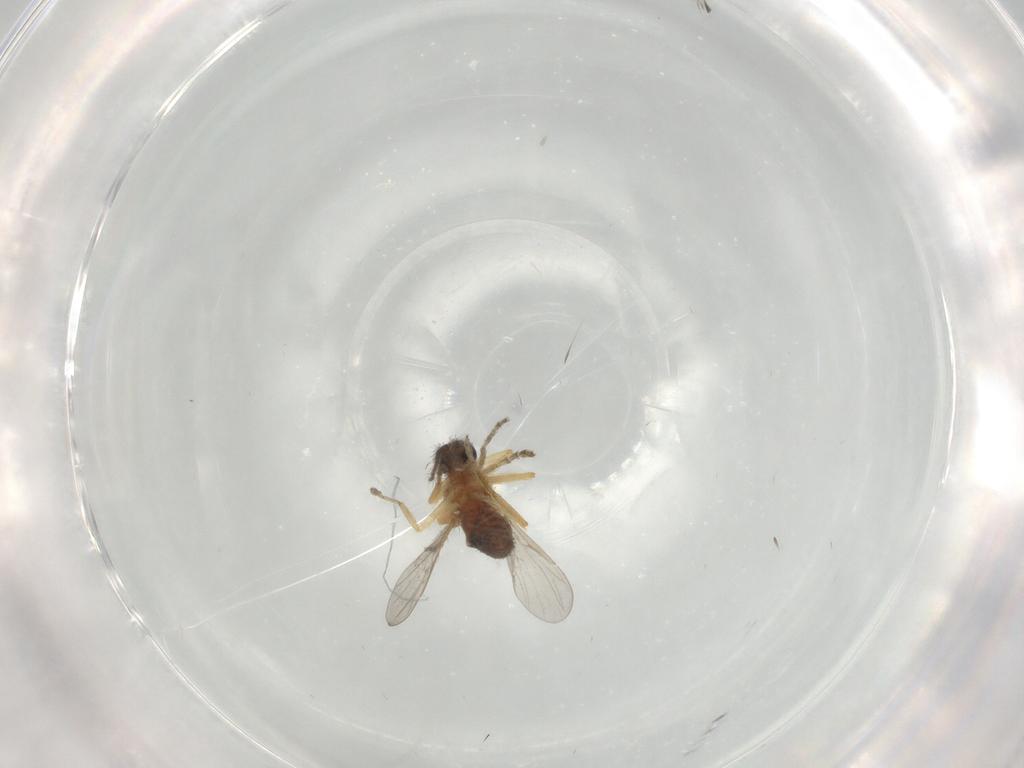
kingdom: Animalia
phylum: Arthropoda
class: Insecta
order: Diptera
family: Ceratopogonidae
